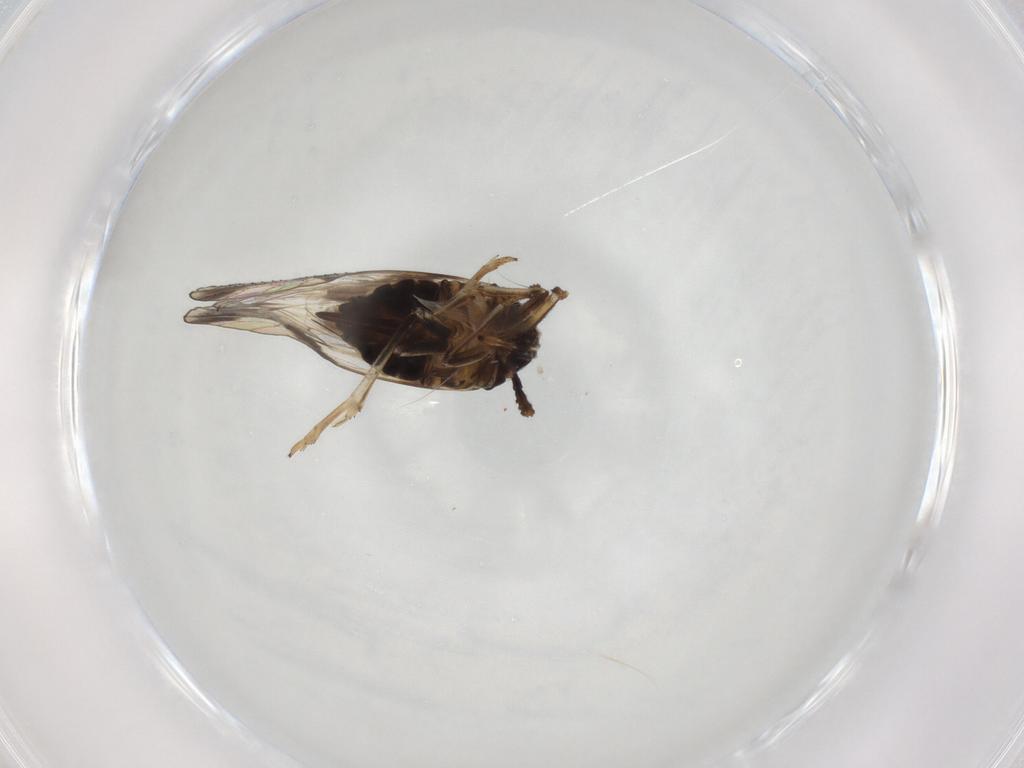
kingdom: Animalia
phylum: Arthropoda
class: Insecta
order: Hemiptera
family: Delphacidae
